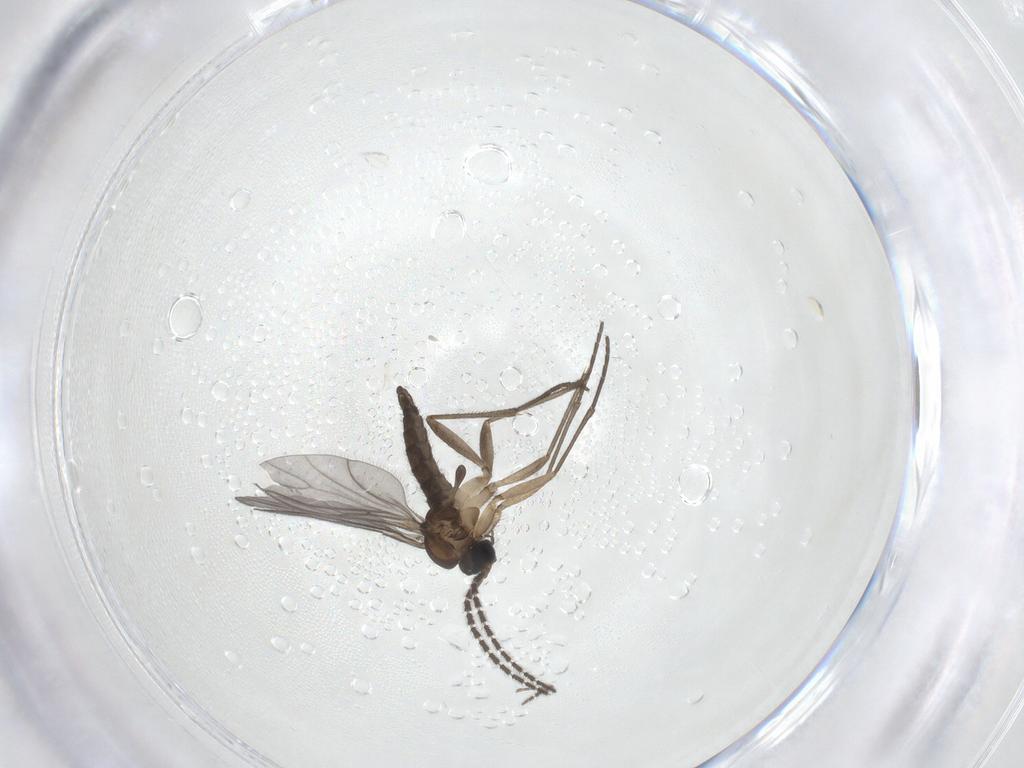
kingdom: Animalia
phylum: Arthropoda
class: Insecta
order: Diptera
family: Sciaridae
